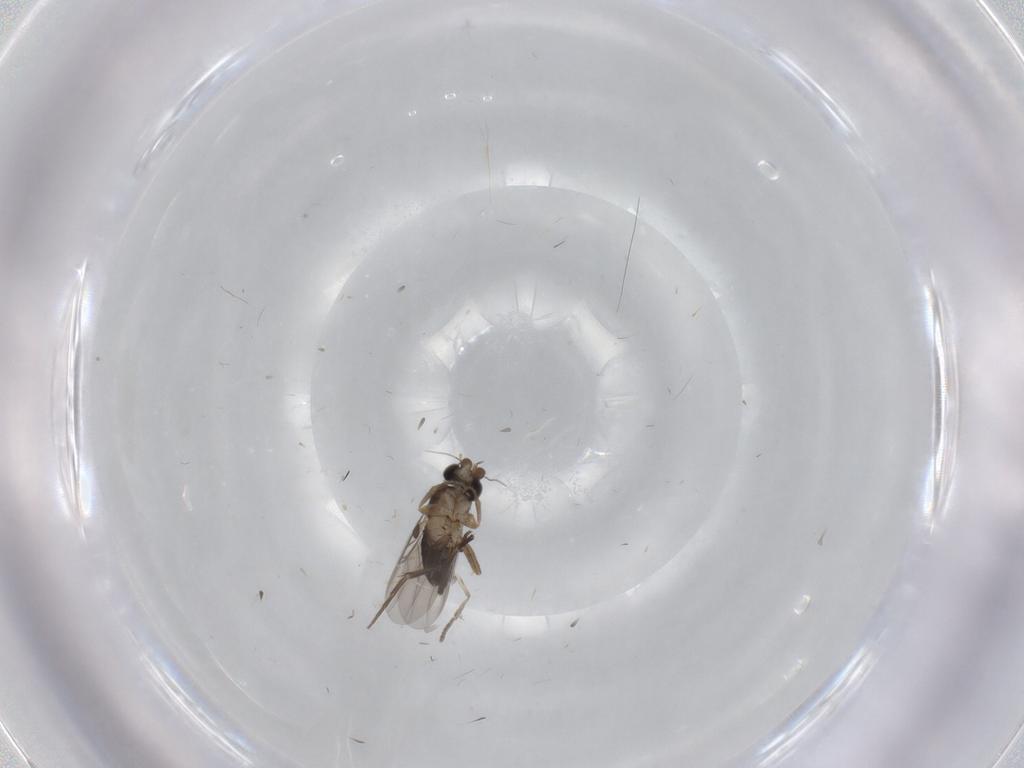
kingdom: Animalia
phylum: Arthropoda
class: Insecta
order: Diptera
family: Phoridae
